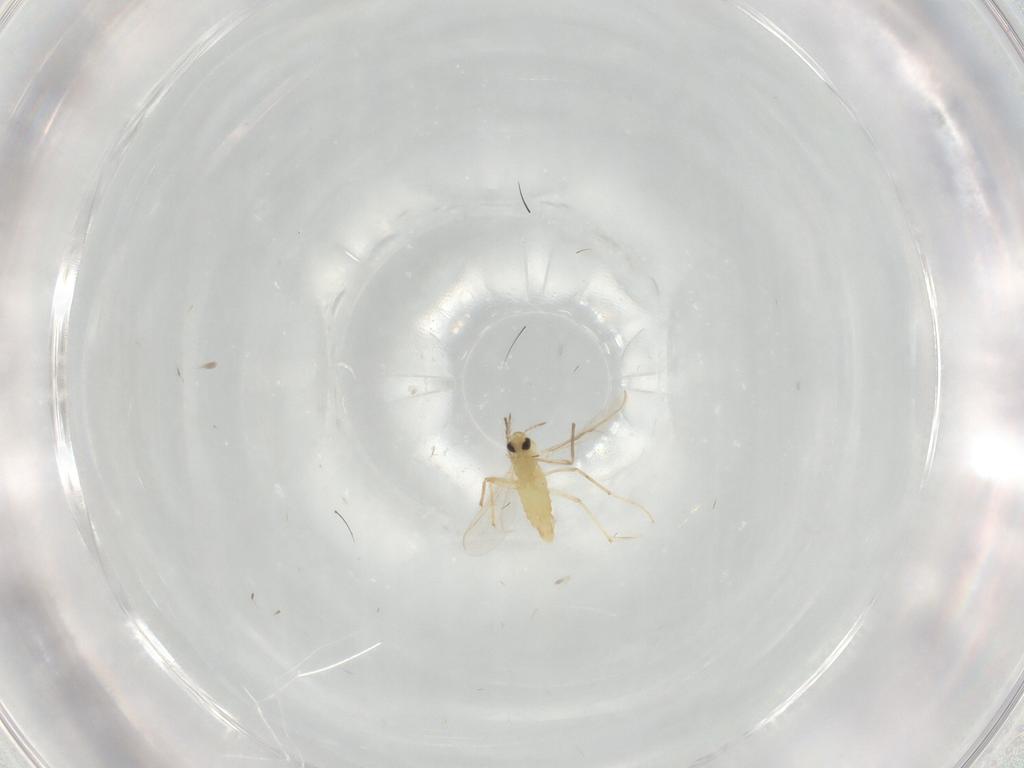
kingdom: Animalia
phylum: Arthropoda
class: Insecta
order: Diptera
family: Chironomidae
